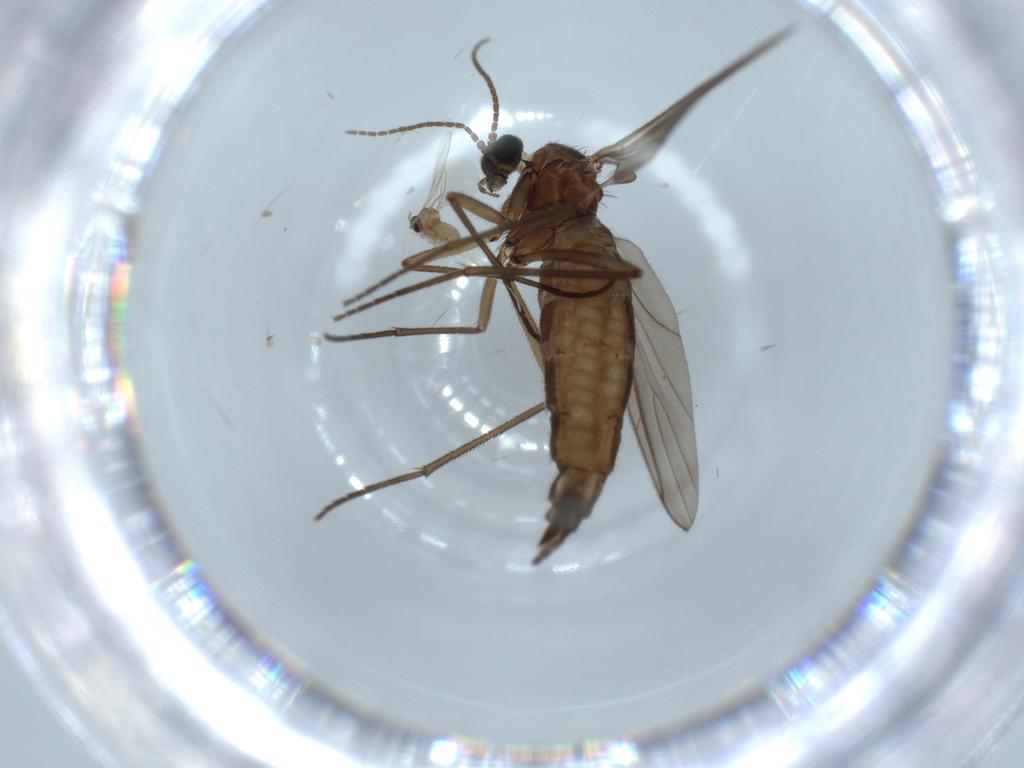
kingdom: Animalia
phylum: Arthropoda
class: Insecta
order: Diptera
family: Sciaridae
